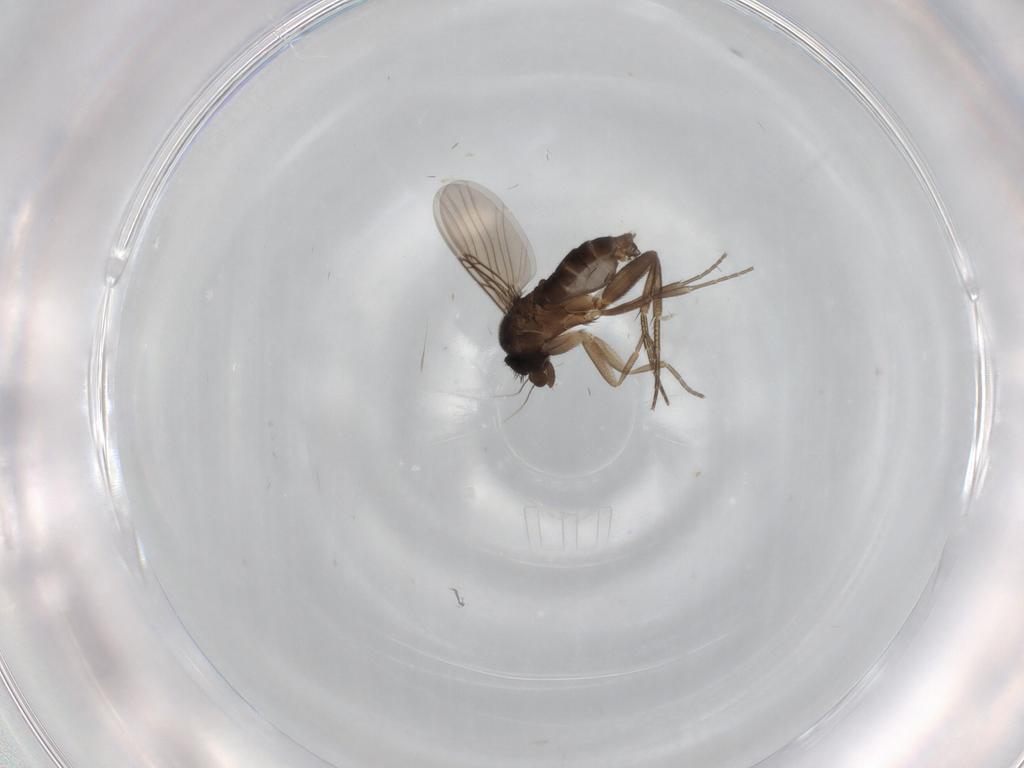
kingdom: Animalia
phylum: Arthropoda
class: Insecta
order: Diptera
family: Phoridae
